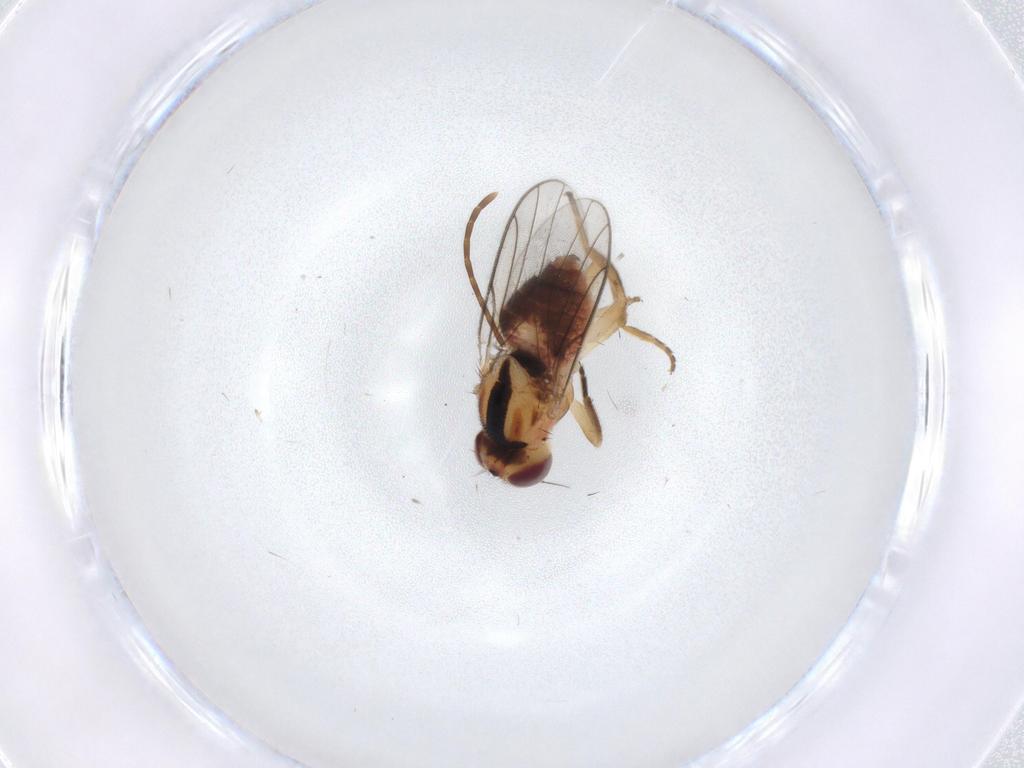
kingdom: Animalia
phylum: Arthropoda
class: Insecta
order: Diptera
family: Chloropidae
